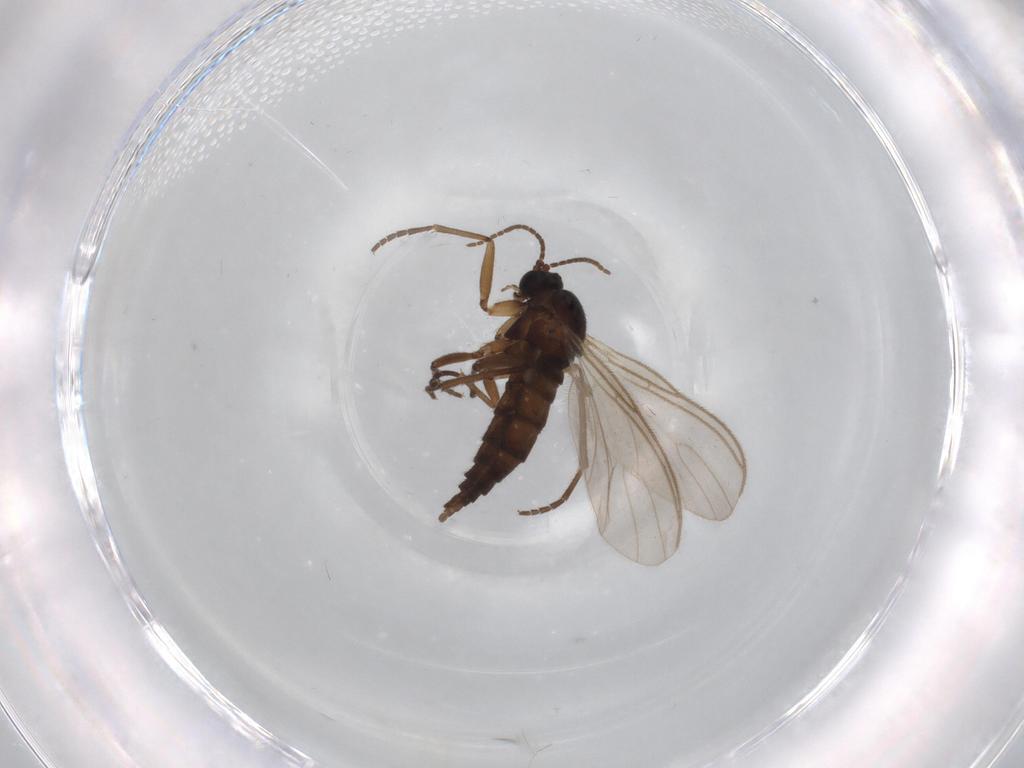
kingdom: Animalia
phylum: Arthropoda
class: Insecta
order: Diptera
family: Sciaridae
